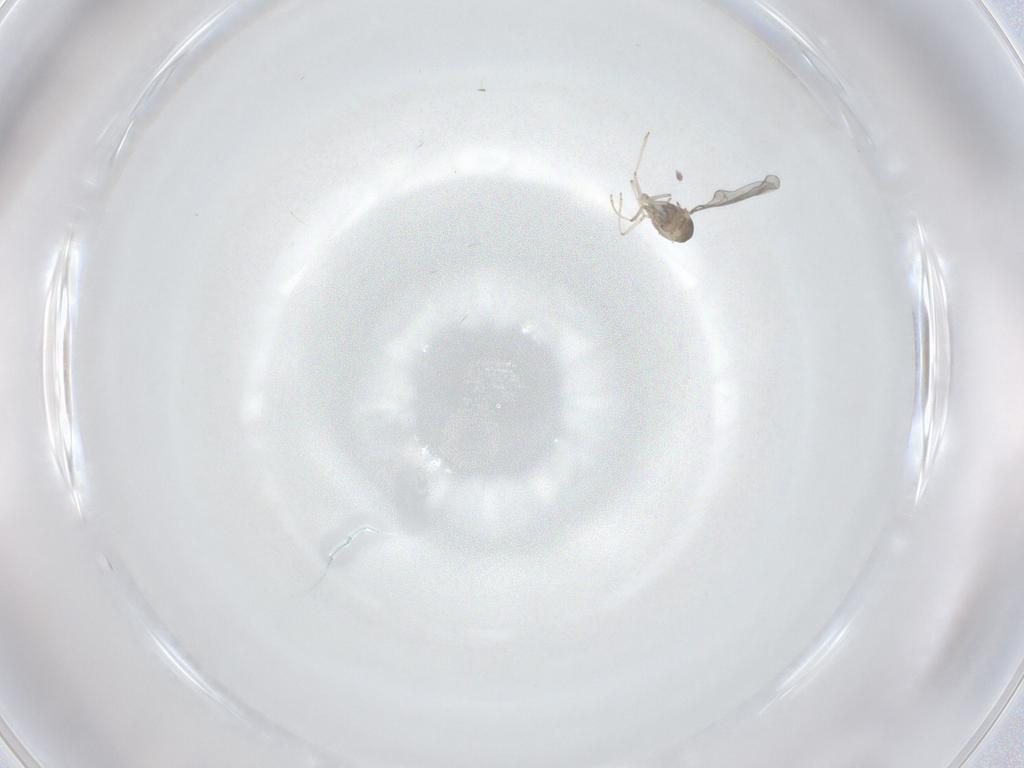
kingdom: Animalia
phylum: Arthropoda
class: Insecta
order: Diptera
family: Cecidomyiidae
